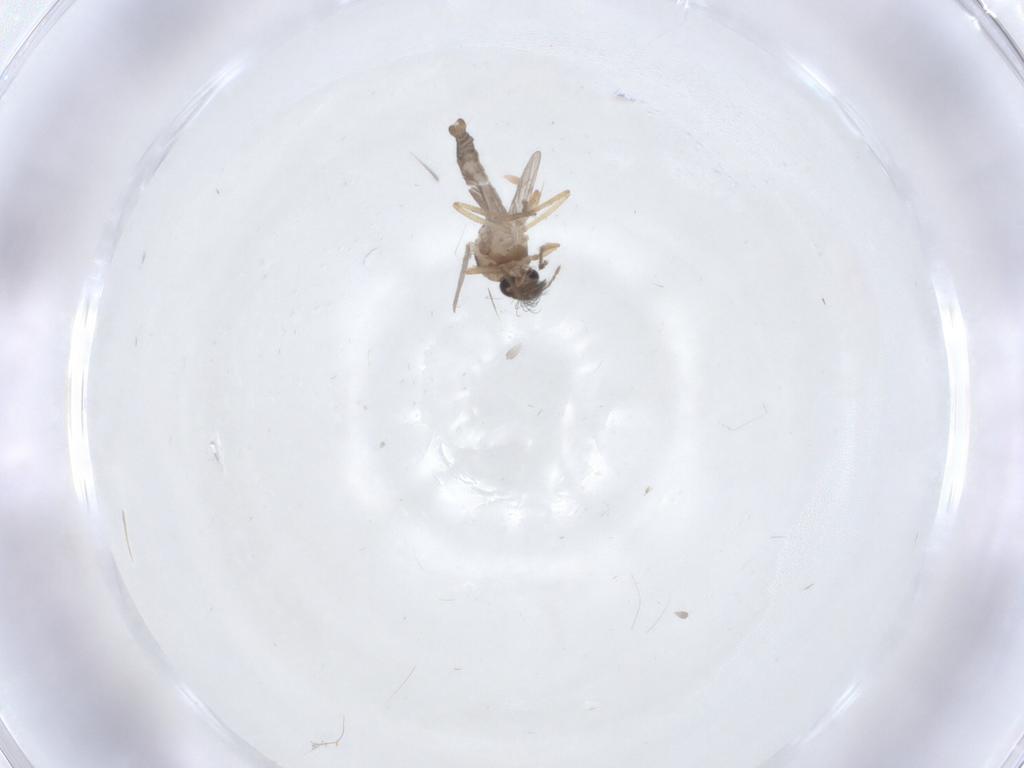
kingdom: Animalia
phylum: Arthropoda
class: Insecta
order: Diptera
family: Ceratopogonidae
